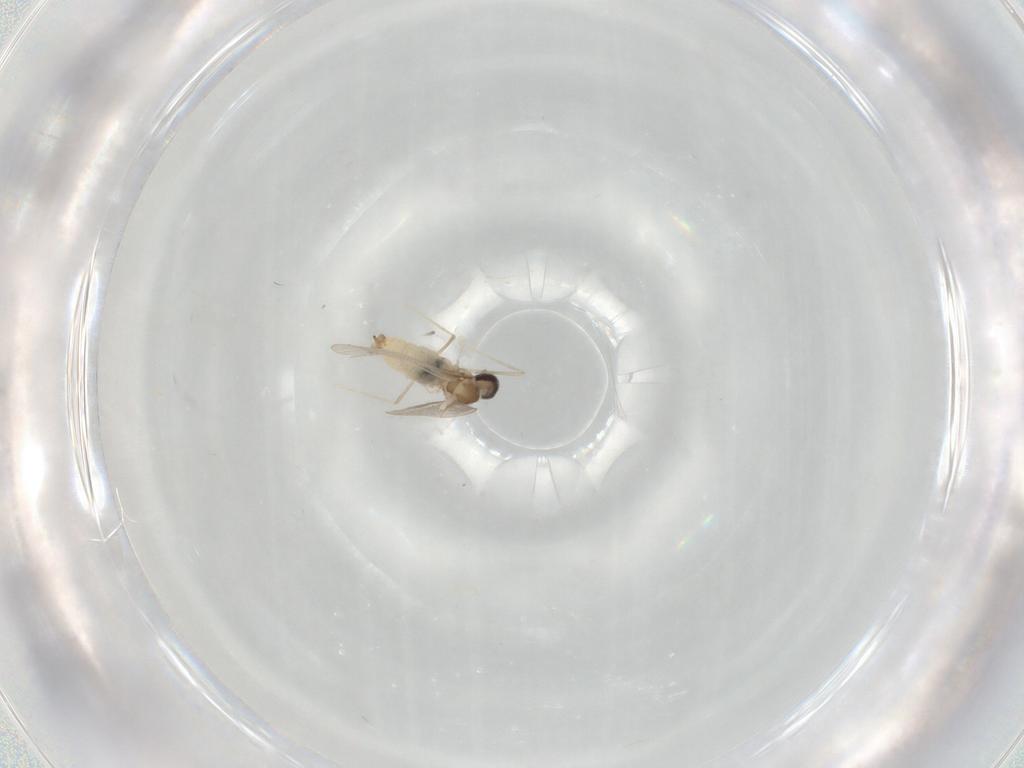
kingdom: Animalia
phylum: Arthropoda
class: Insecta
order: Diptera
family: Cecidomyiidae
